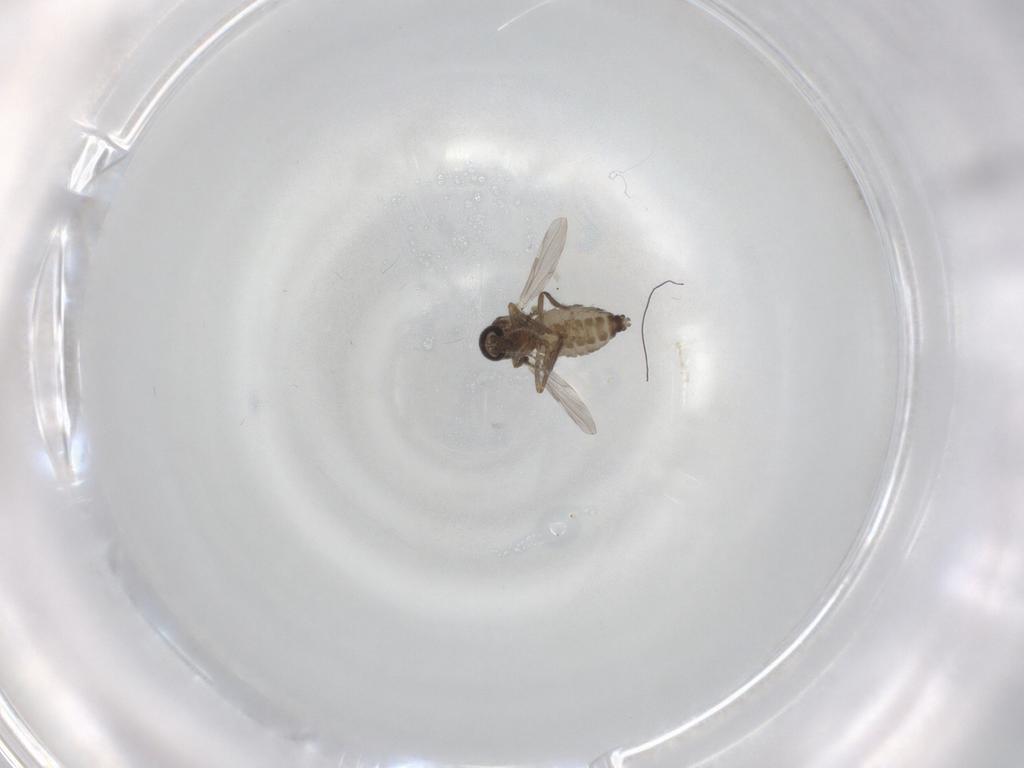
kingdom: Animalia
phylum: Arthropoda
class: Insecta
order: Diptera
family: Ceratopogonidae
